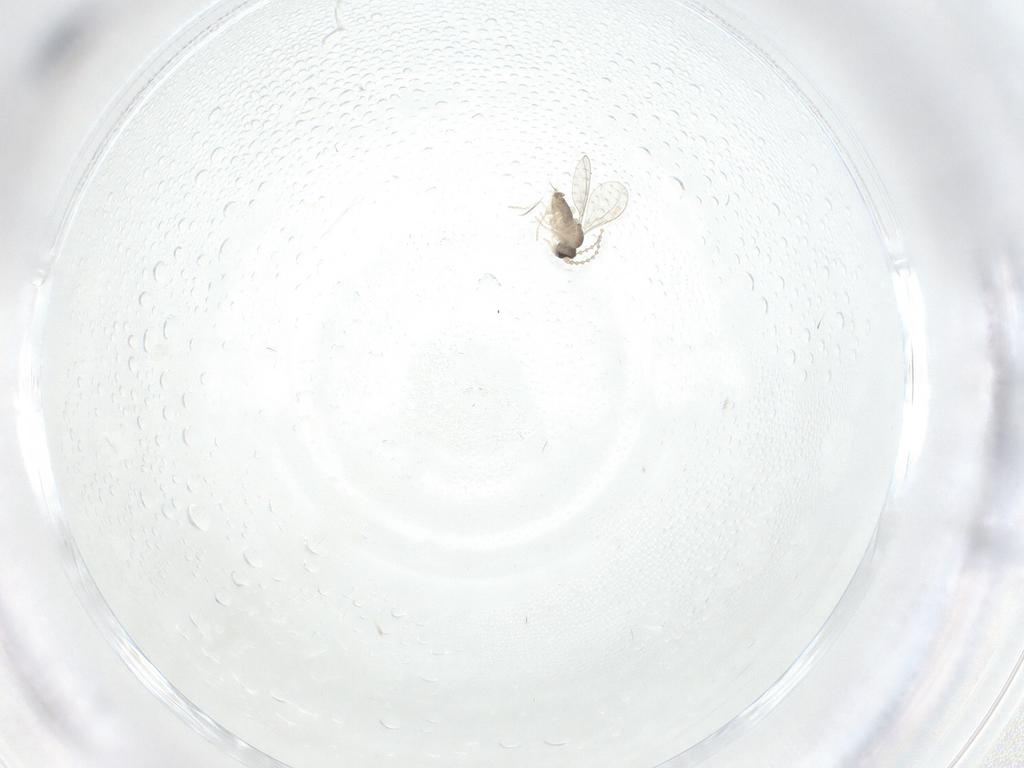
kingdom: Animalia
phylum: Arthropoda
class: Insecta
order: Diptera
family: Cecidomyiidae
